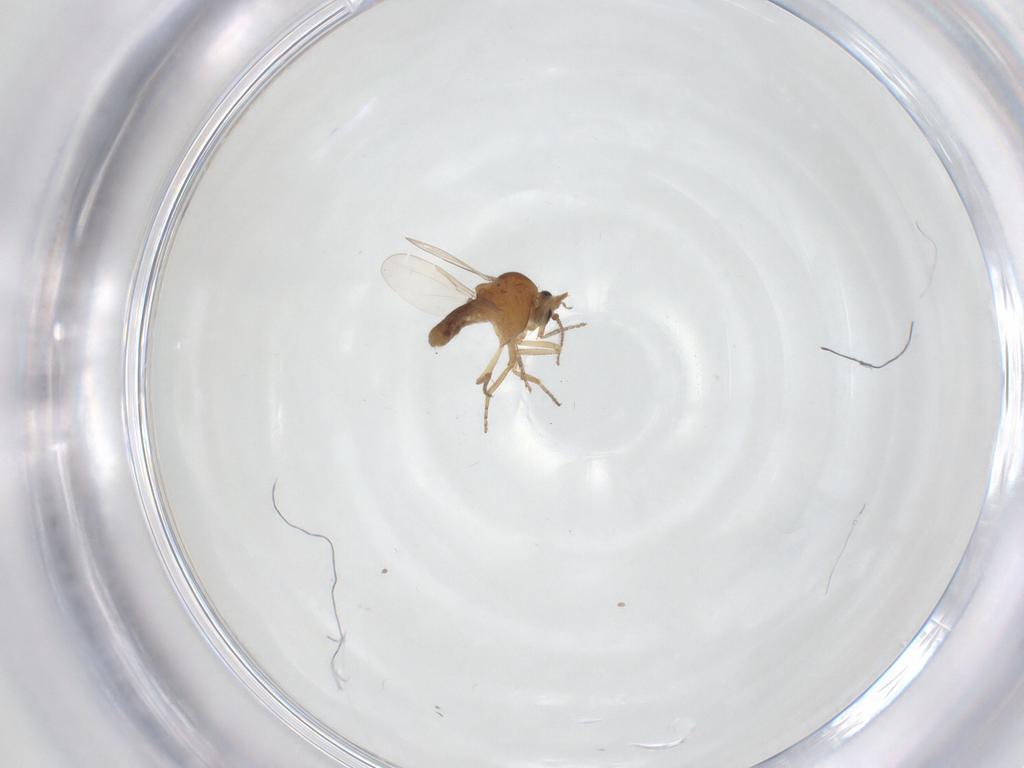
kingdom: Animalia
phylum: Arthropoda
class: Insecta
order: Diptera
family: Ceratopogonidae
